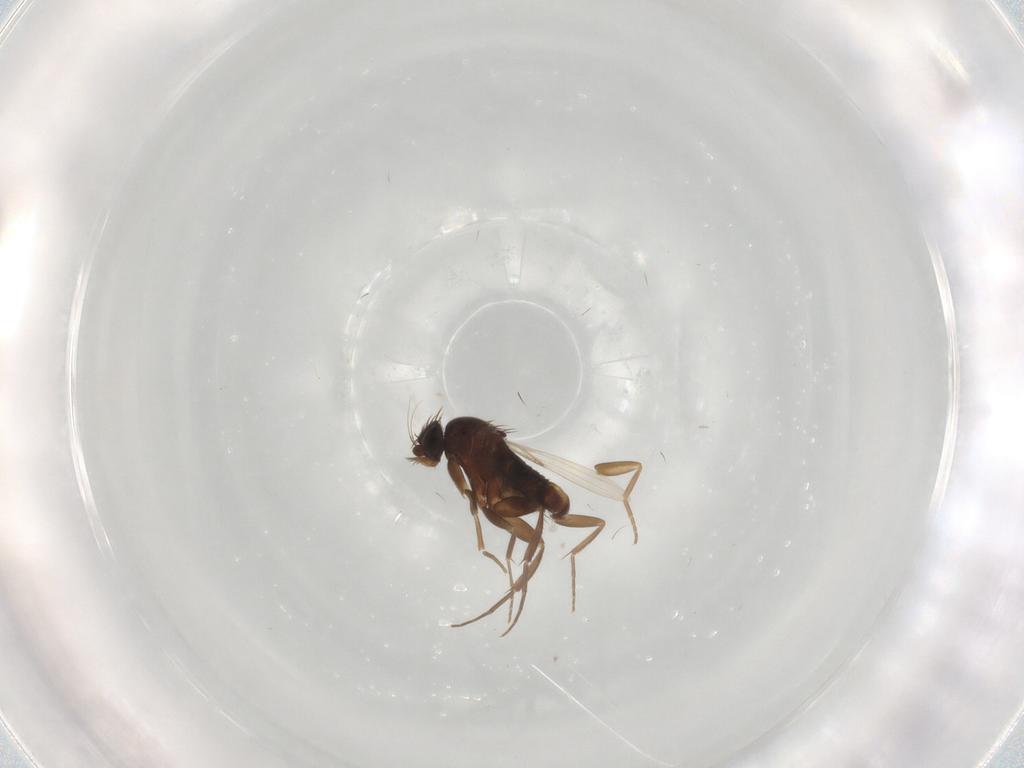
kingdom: Animalia
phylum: Arthropoda
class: Insecta
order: Diptera
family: Phoridae
